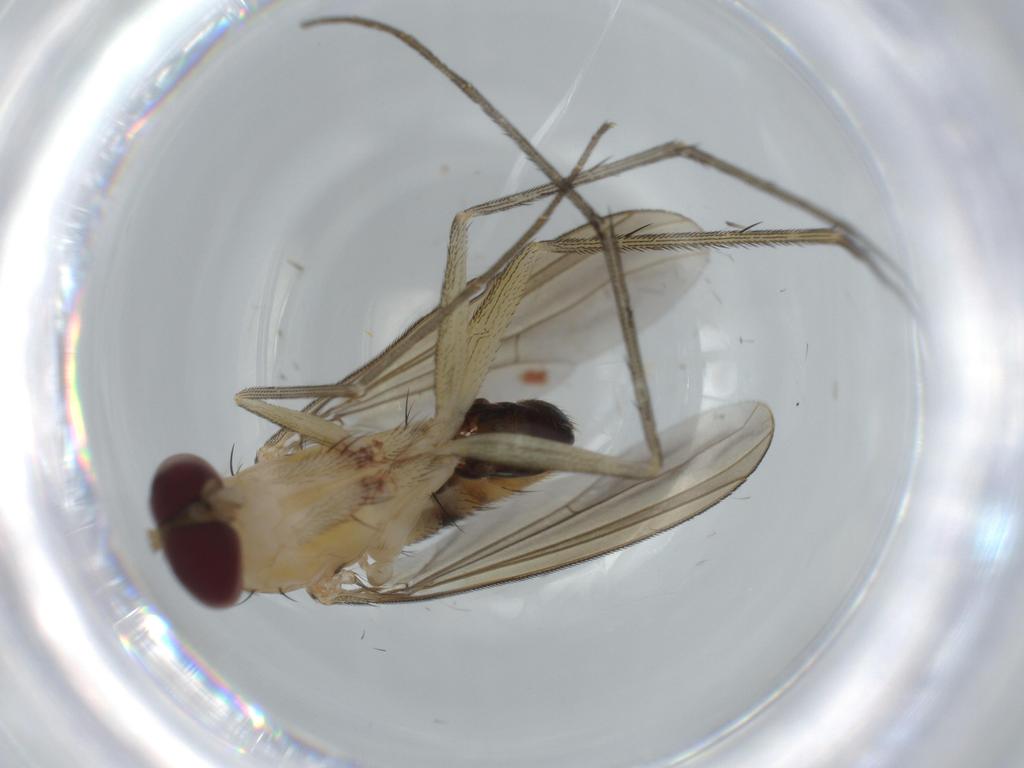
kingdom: Animalia
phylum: Arthropoda
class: Insecta
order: Diptera
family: Cecidomyiidae
